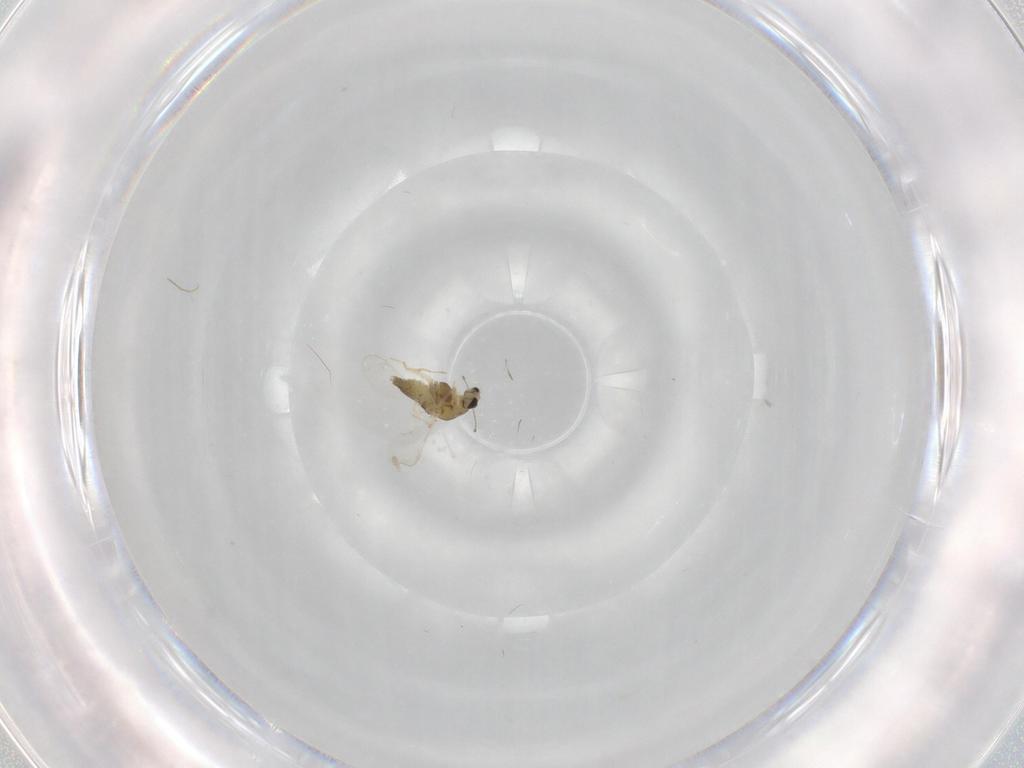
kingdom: Animalia
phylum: Arthropoda
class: Insecta
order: Diptera
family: Chironomidae
